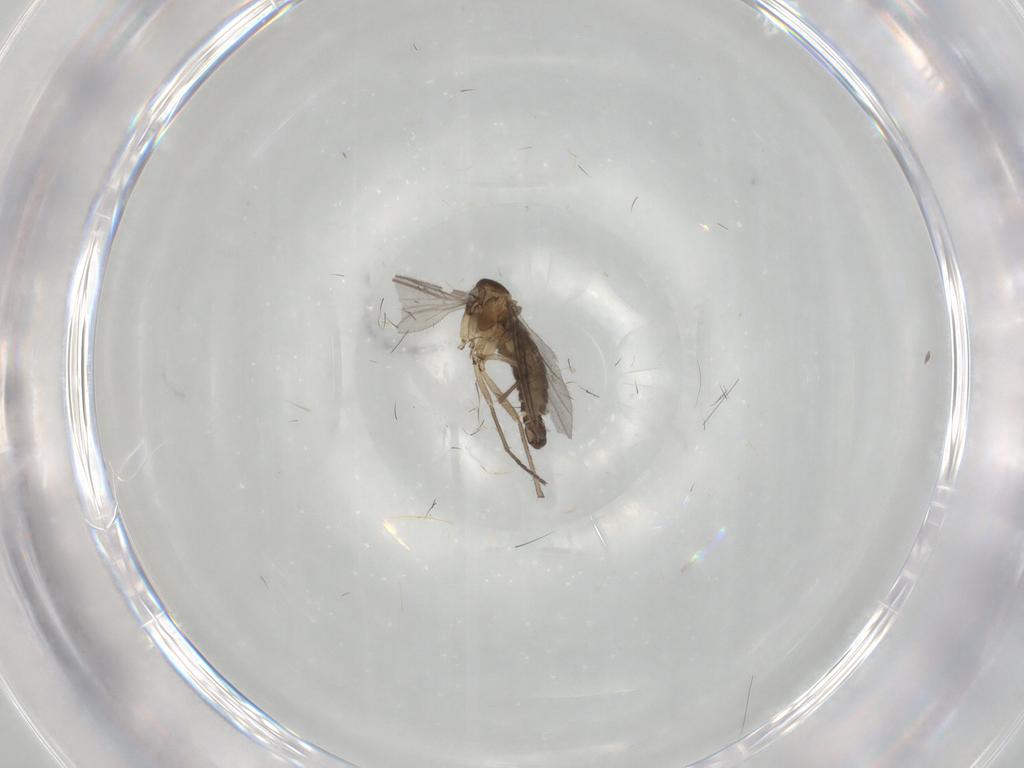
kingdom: Animalia
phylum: Arthropoda
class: Insecta
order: Diptera
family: Sciaridae
